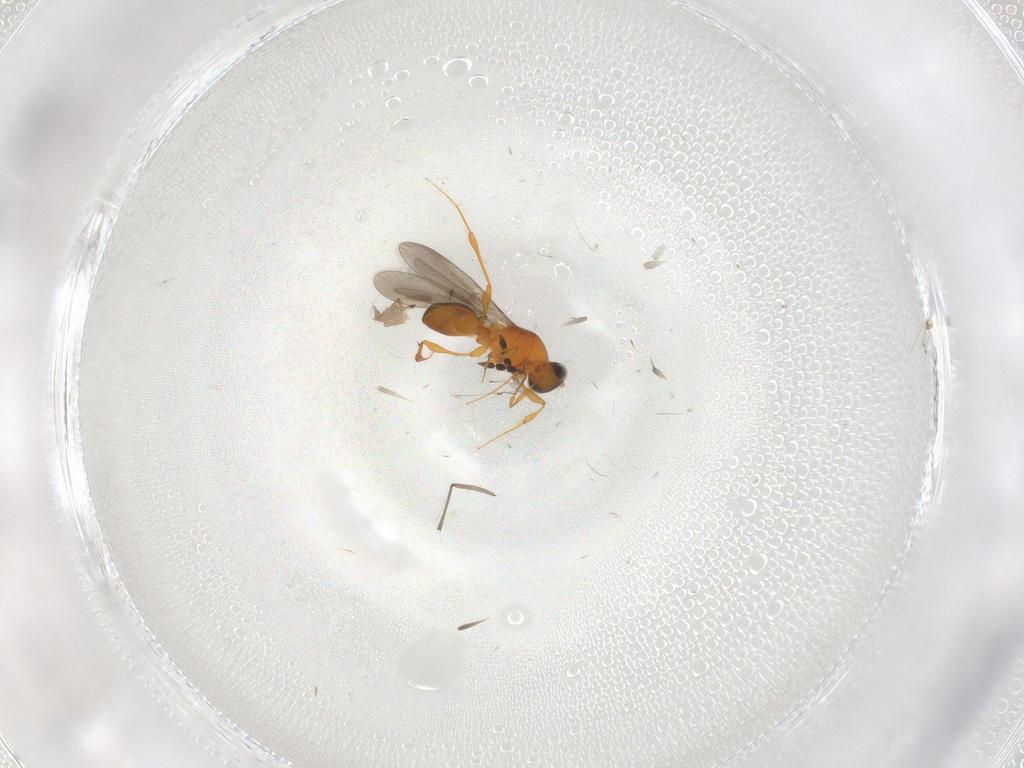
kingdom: Animalia
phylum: Arthropoda
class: Insecta
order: Hymenoptera
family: Platygastridae
